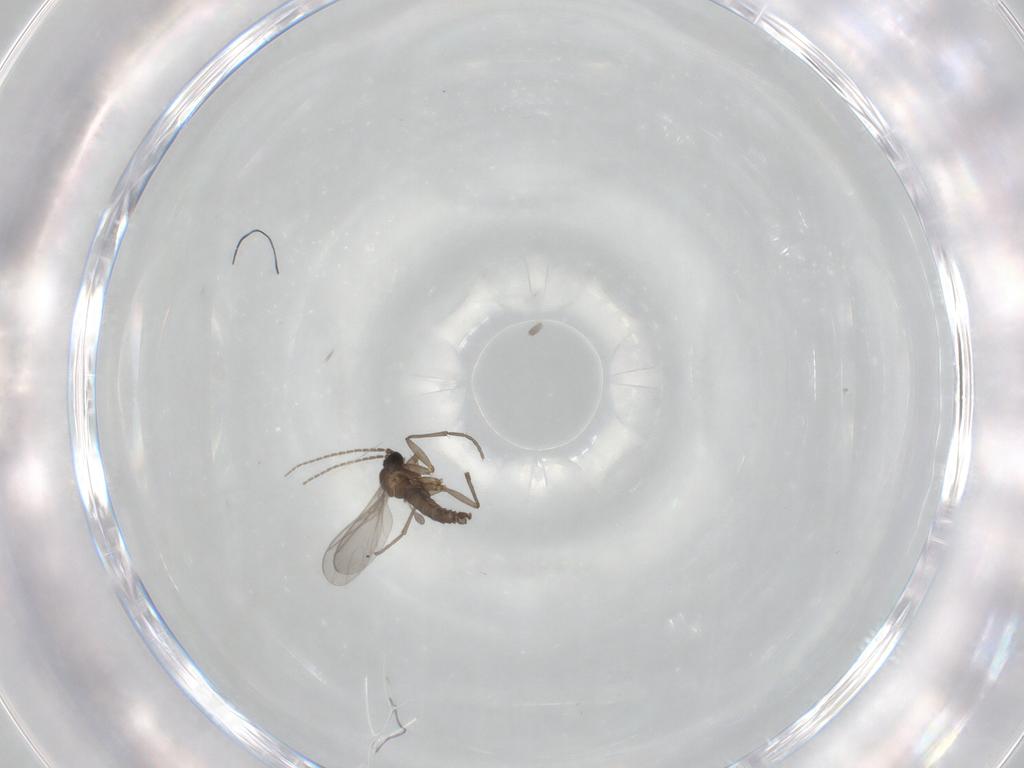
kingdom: Animalia
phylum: Arthropoda
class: Insecta
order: Diptera
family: Sciaridae
